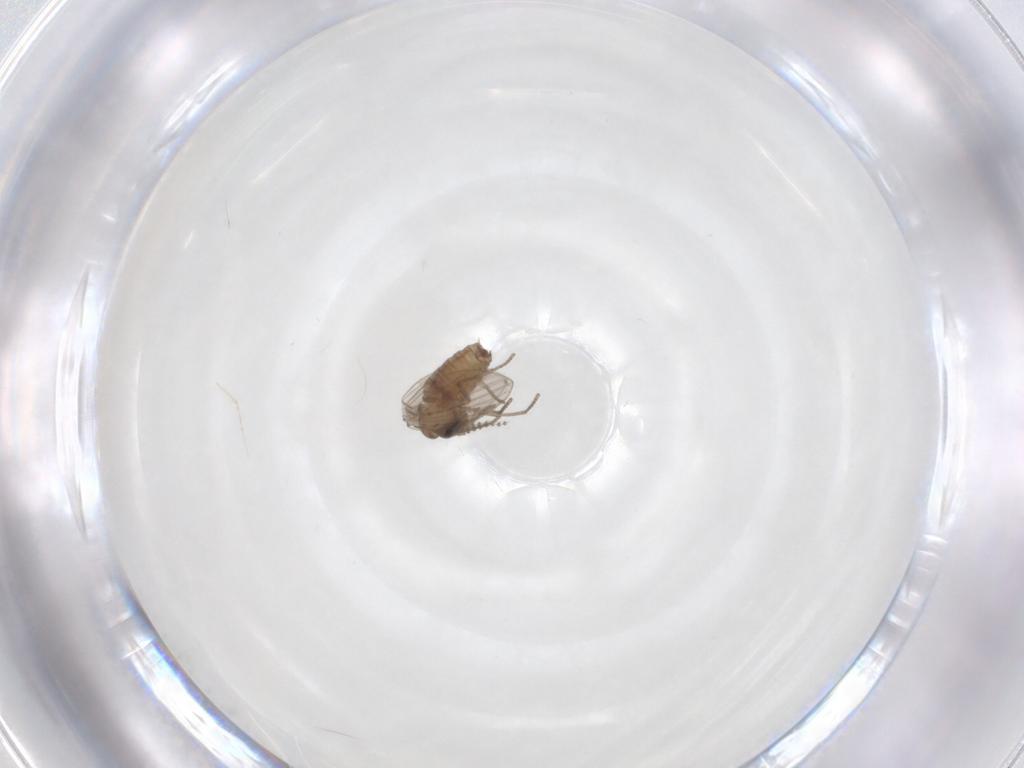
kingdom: Animalia
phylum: Arthropoda
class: Insecta
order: Diptera
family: Psychodidae
